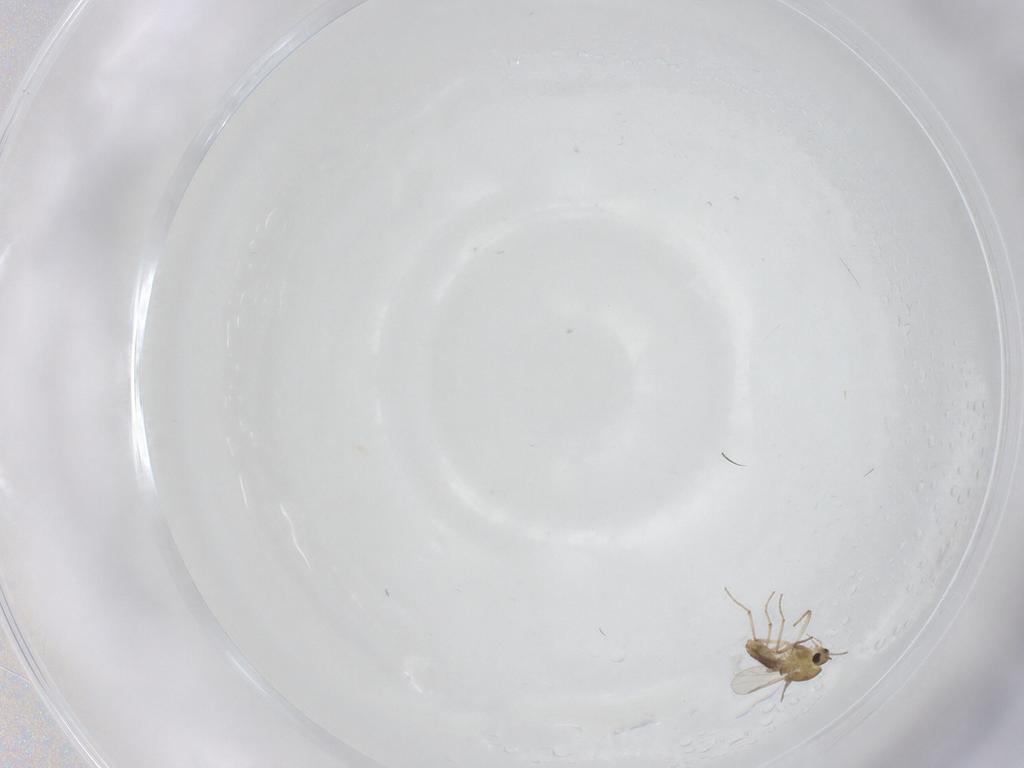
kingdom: Animalia
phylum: Arthropoda
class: Insecta
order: Diptera
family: Chironomidae
